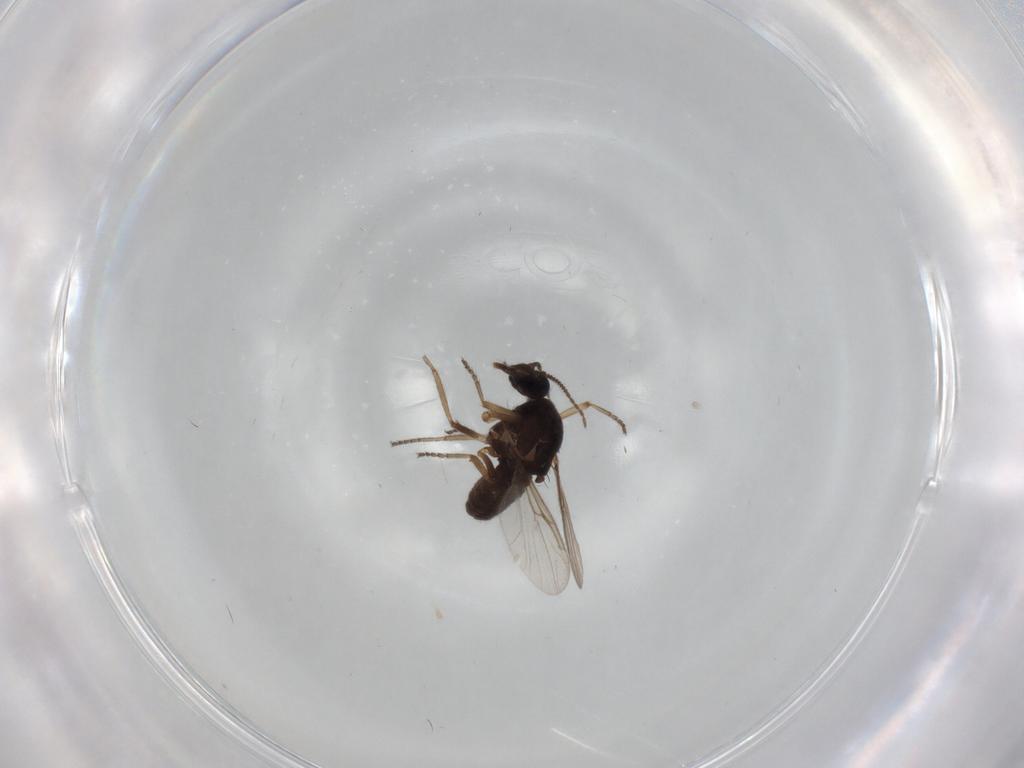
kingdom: Animalia
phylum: Arthropoda
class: Insecta
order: Diptera
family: Ceratopogonidae
